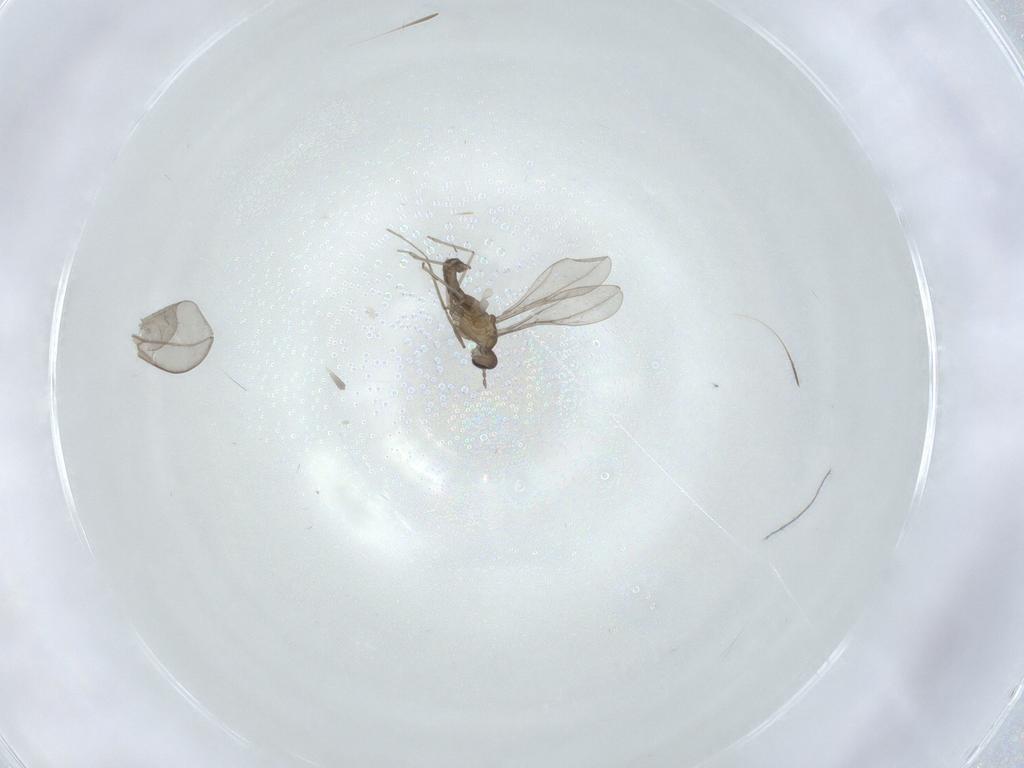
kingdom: Animalia
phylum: Arthropoda
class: Insecta
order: Diptera
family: Cecidomyiidae
